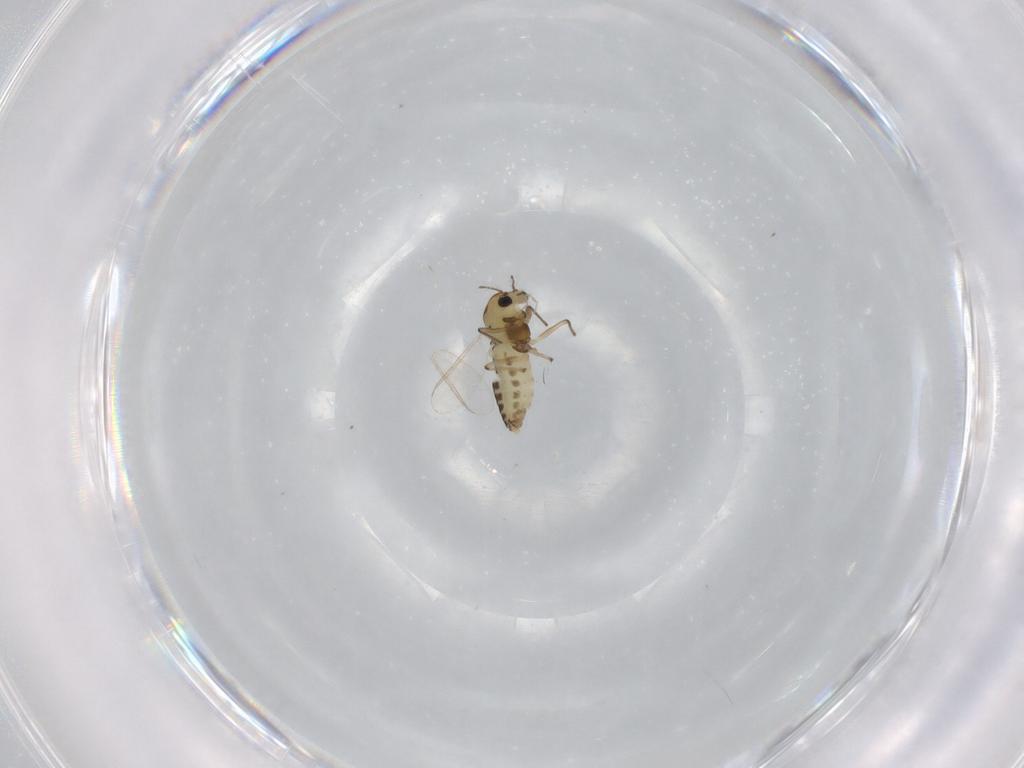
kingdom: Animalia
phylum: Arthropoda
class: Insecta
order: Diptera
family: Chironomidae
